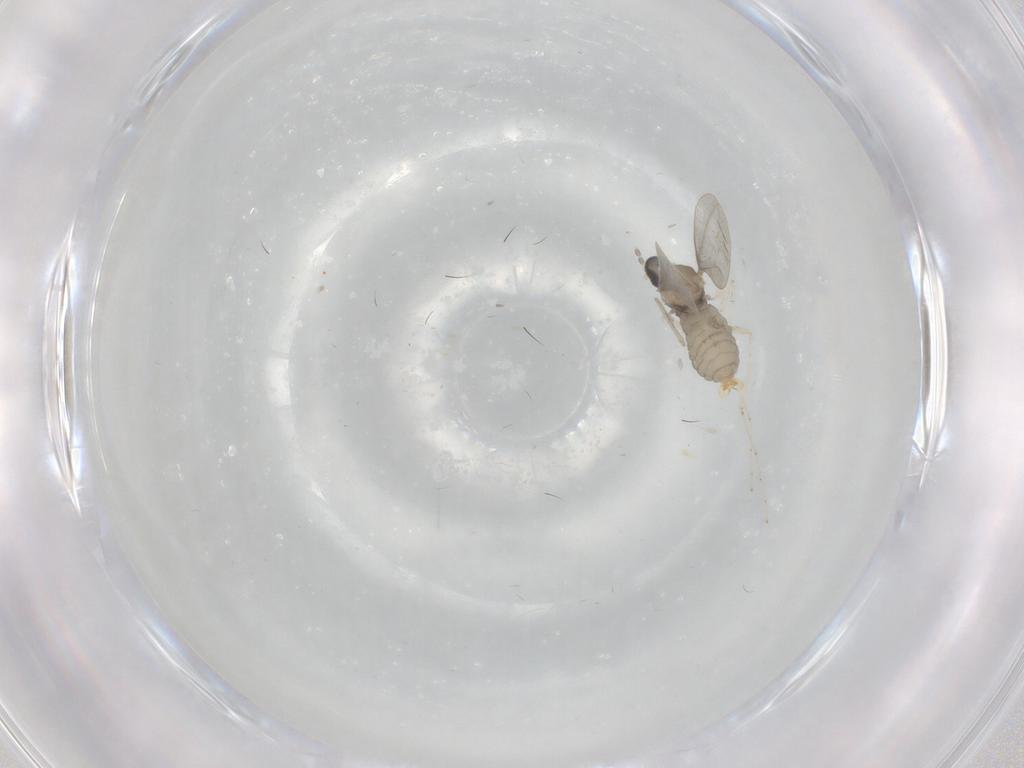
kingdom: Animalia
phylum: Arthropoda
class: Insecta
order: Diptera
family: Cecidomyiidae
